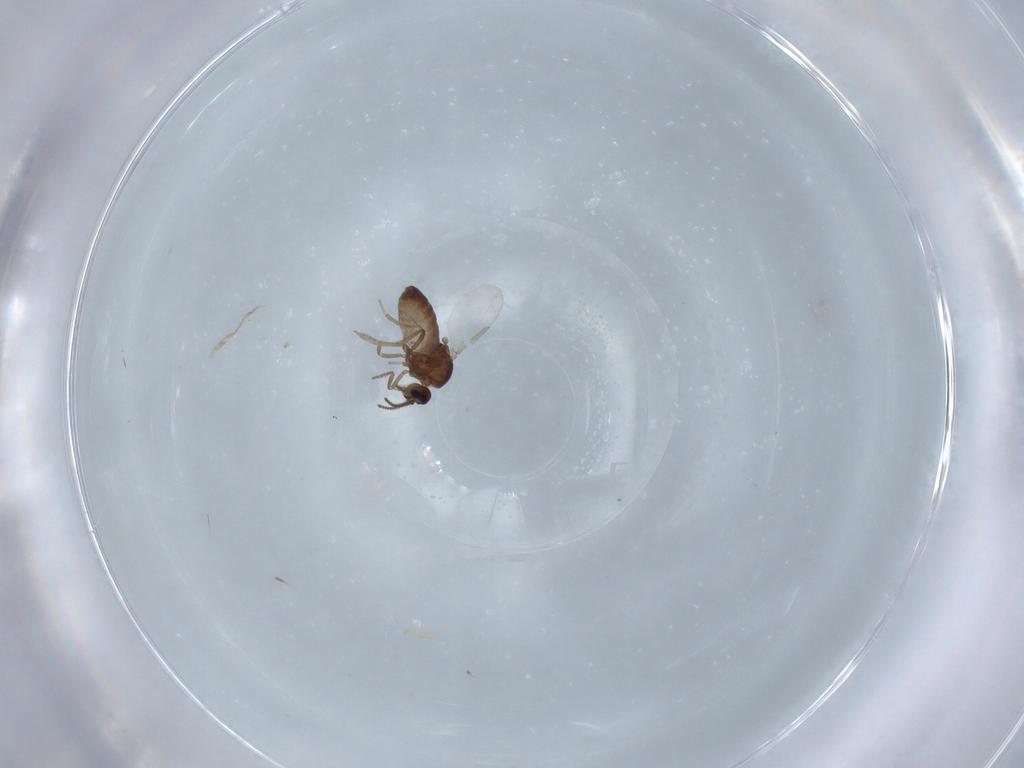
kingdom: Animalia
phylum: Arthropoda
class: Insecta
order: Diptera
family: Ceratopogonidae
